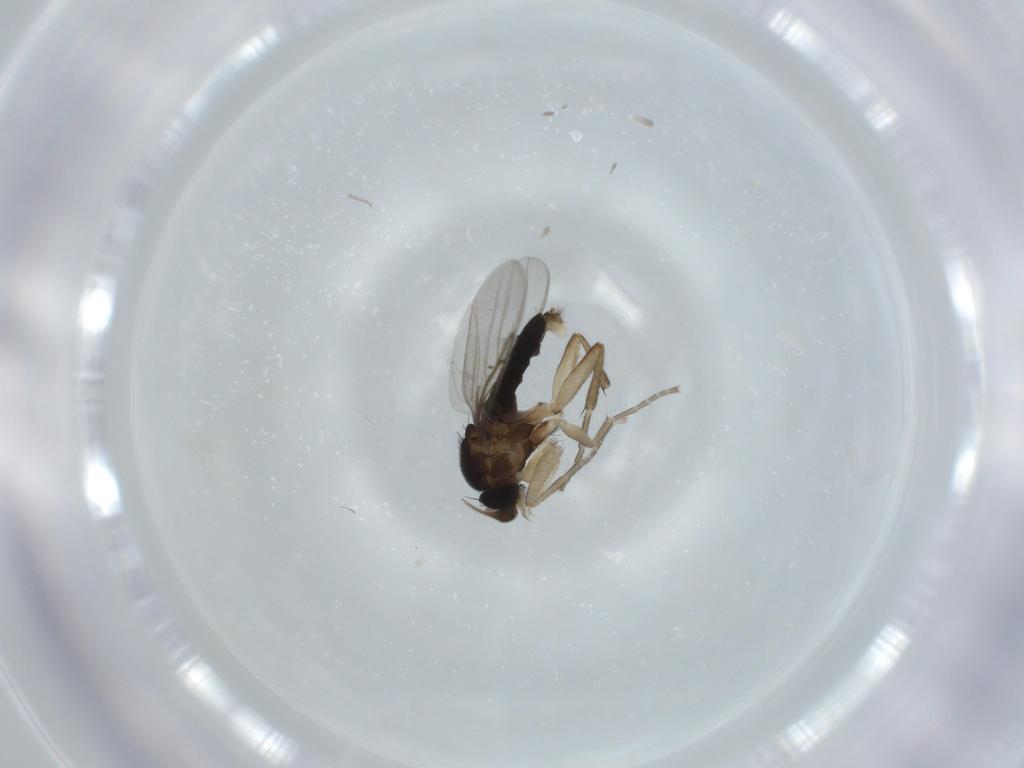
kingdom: Animalia
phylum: Arthropoda
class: Insecta
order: Diptera
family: Cecidomyiidae
